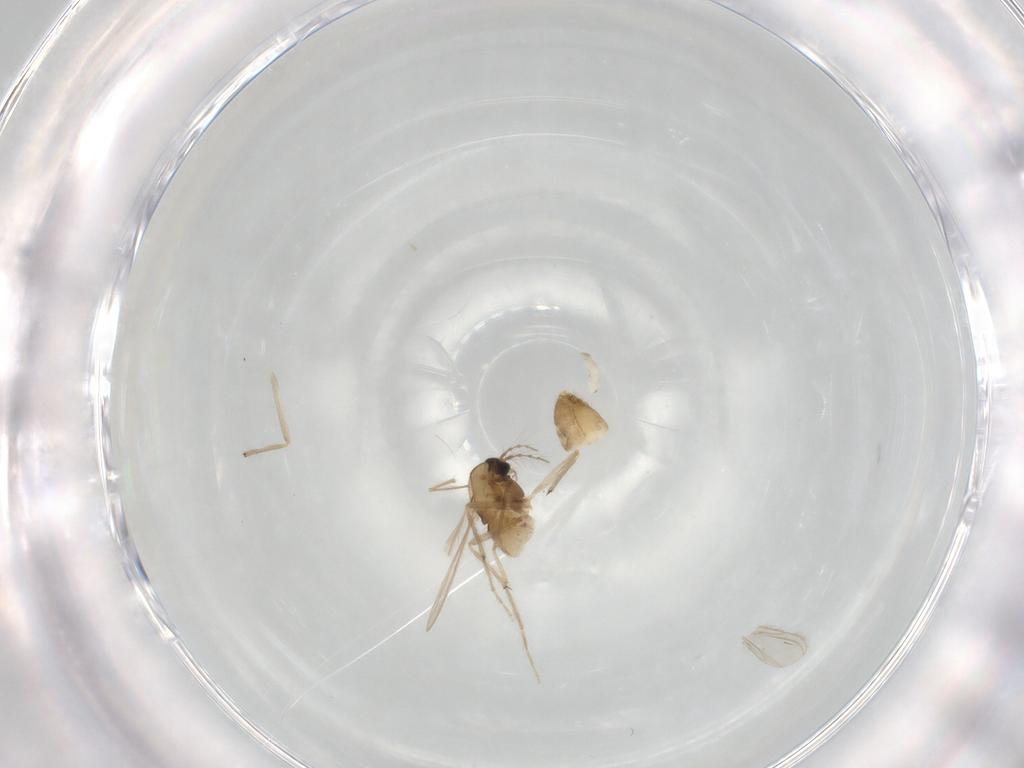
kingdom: Animalia
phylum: Arthropoda
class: Insecta
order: Diptera
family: Chironomidae
